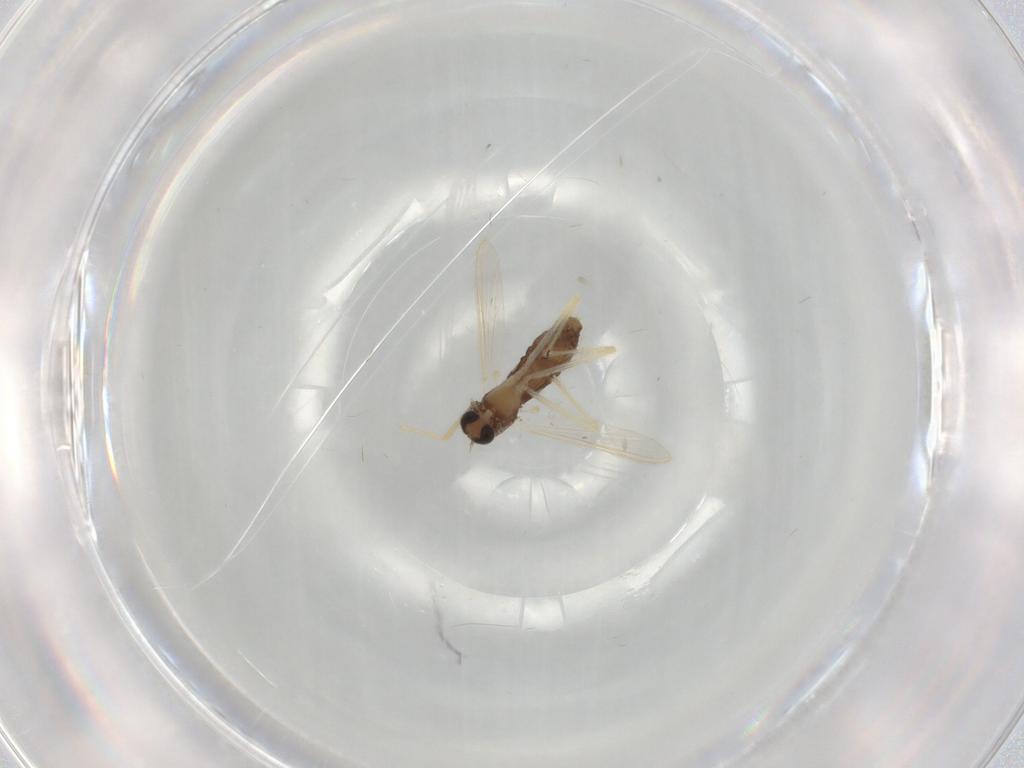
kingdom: Animalia
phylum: Arthropoda
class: Insecta
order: Diptera
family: Chironomidae
